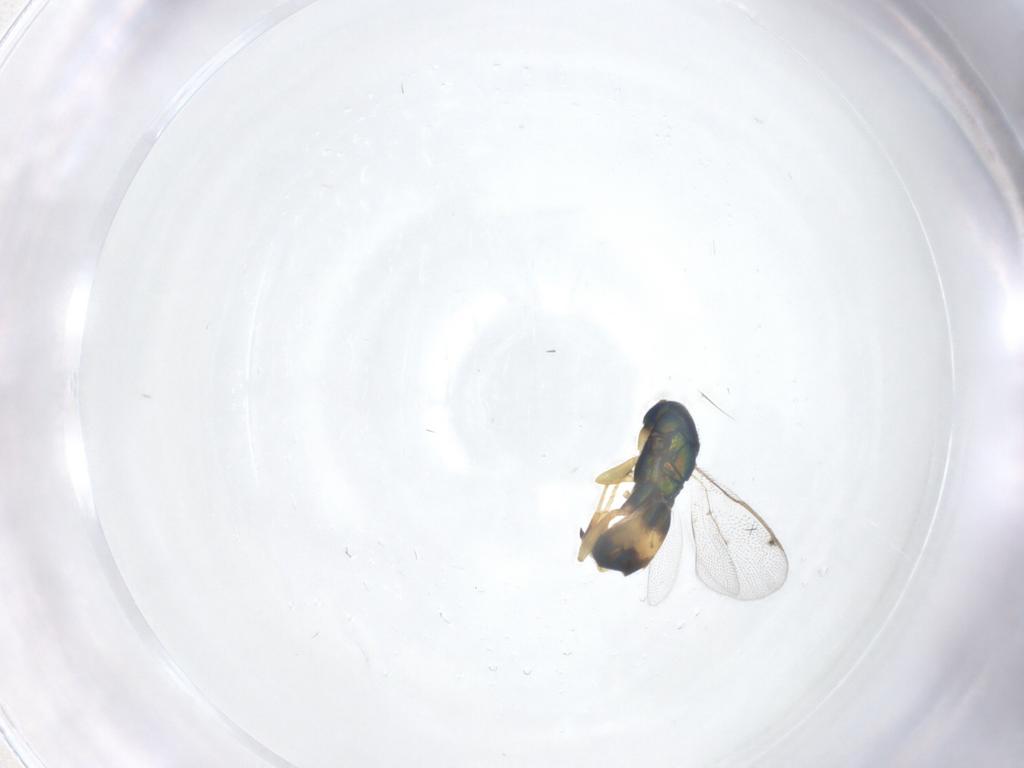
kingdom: Animalia
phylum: Arthropoda
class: Insecta
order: Hymenoptera
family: Torymidae
